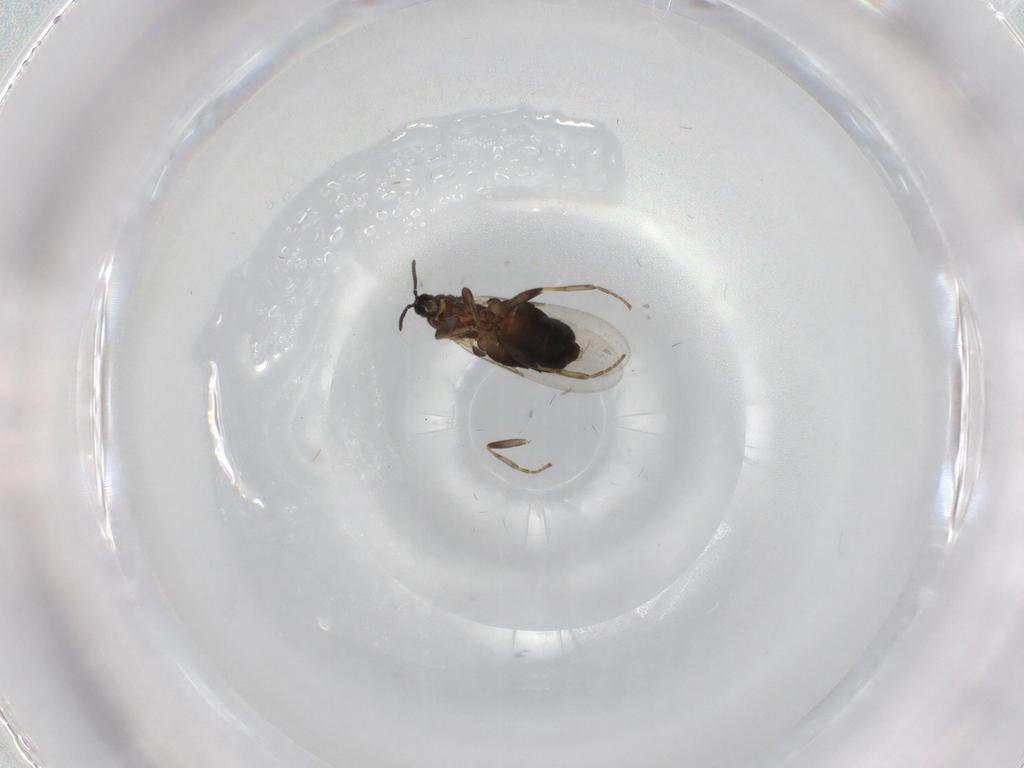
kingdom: Animalia
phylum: Arthropoda
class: Insecta
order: Diptera
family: Scatopsidae
